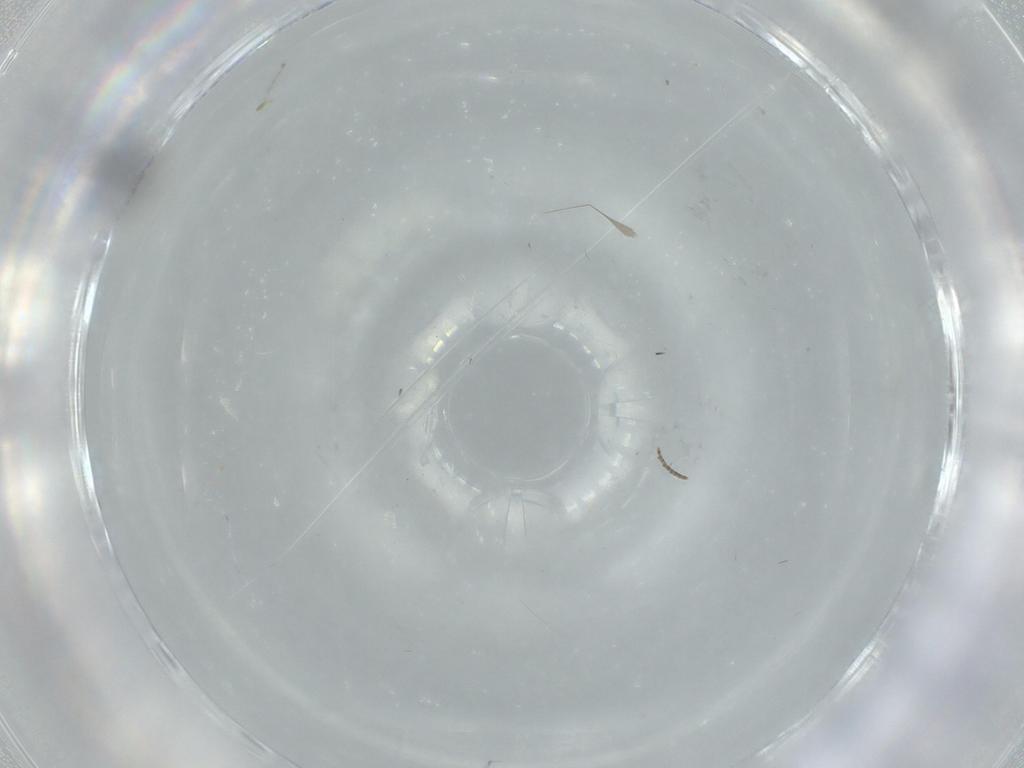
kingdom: Animalia
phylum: Arthropoda
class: Insecta
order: Coleoptera
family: Ptiliidae
